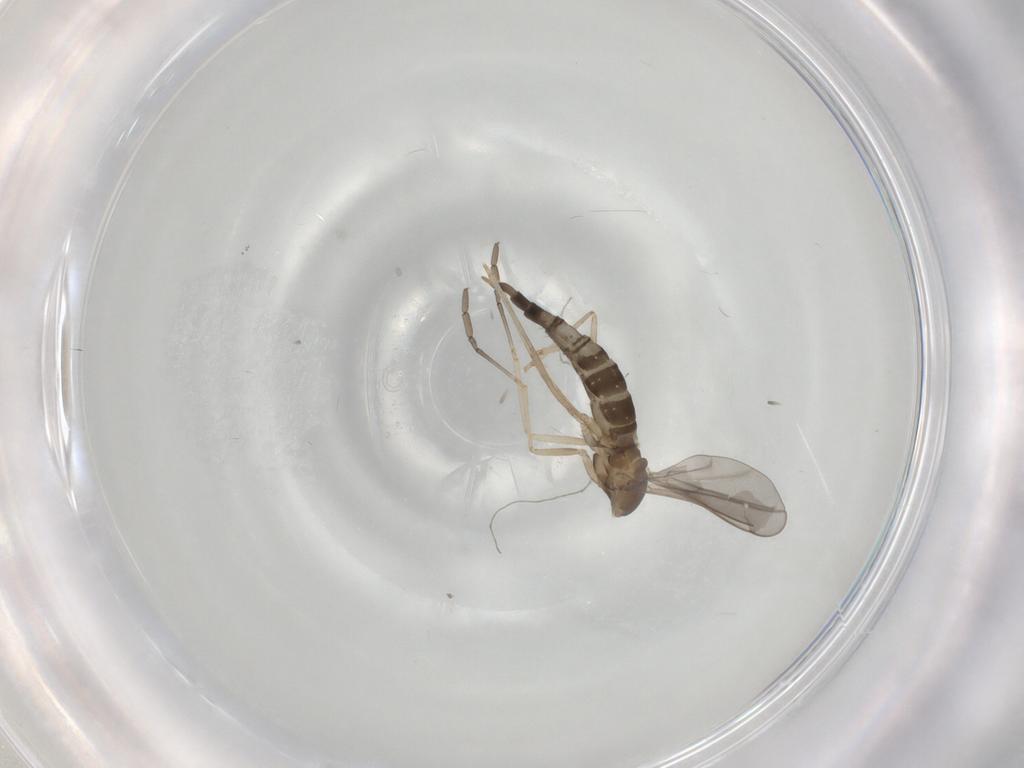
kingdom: Animalia
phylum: Arthropoda
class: Insecta
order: Diptera
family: Cecidomyiidae
